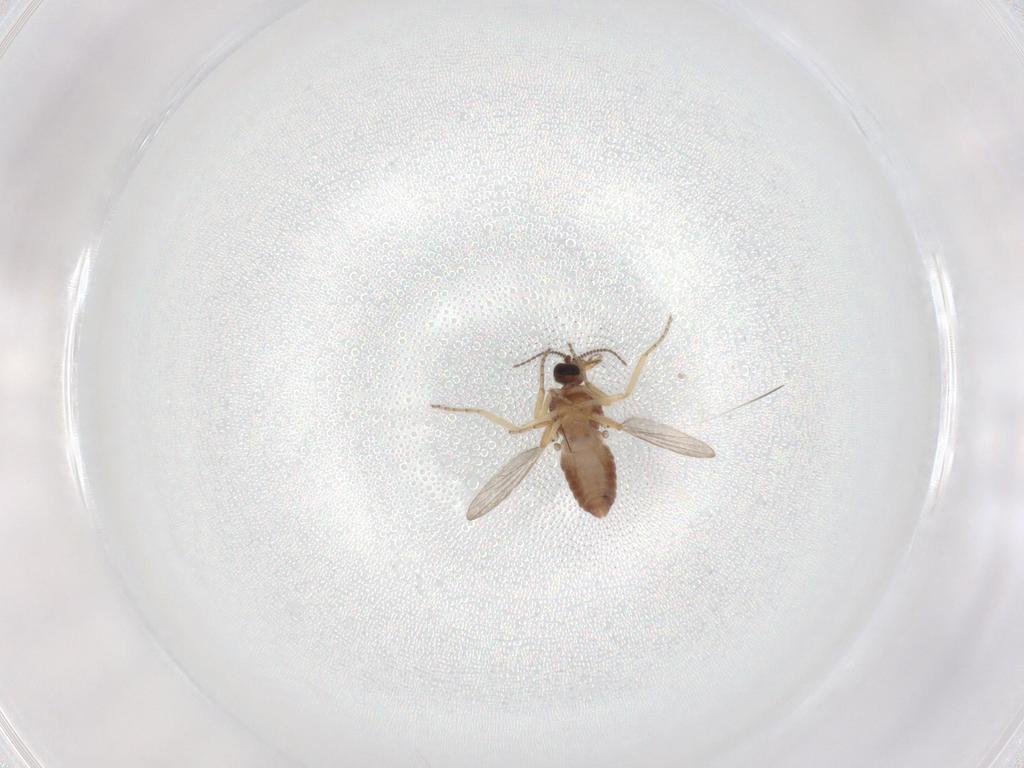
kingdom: Animalia
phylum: Arthropoda
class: Insecta
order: Diptera
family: Ceratopogonidae
